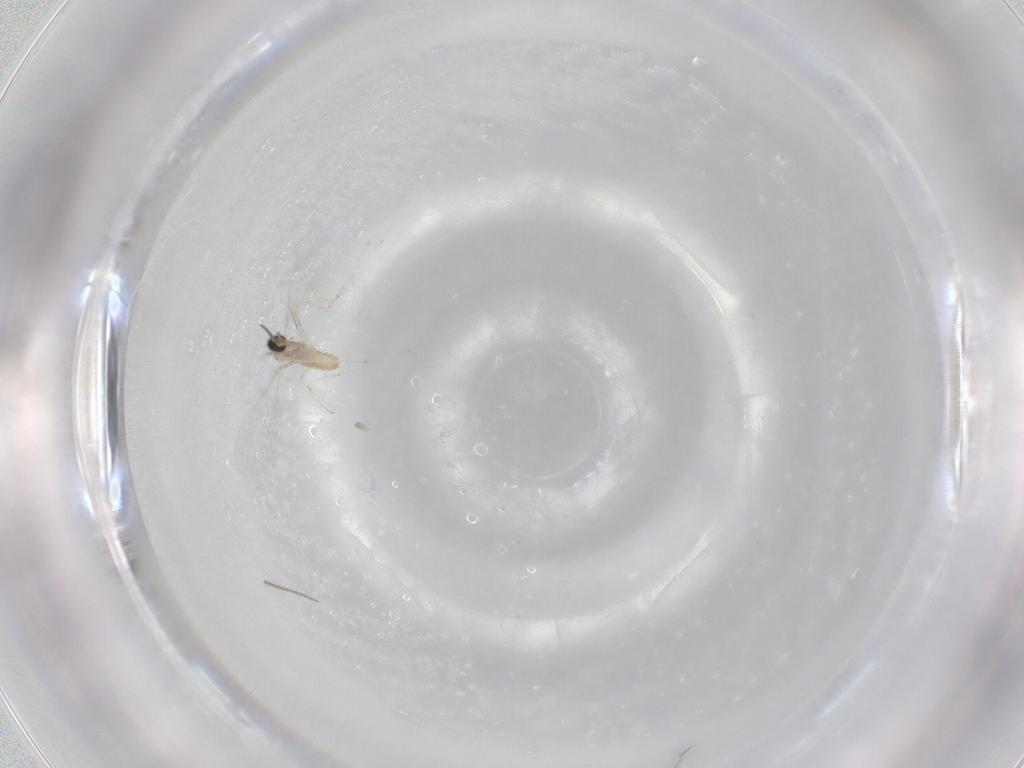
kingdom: Animalia
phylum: Arthropoda
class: Insecta
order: Diptera
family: Cecidomyiidae
